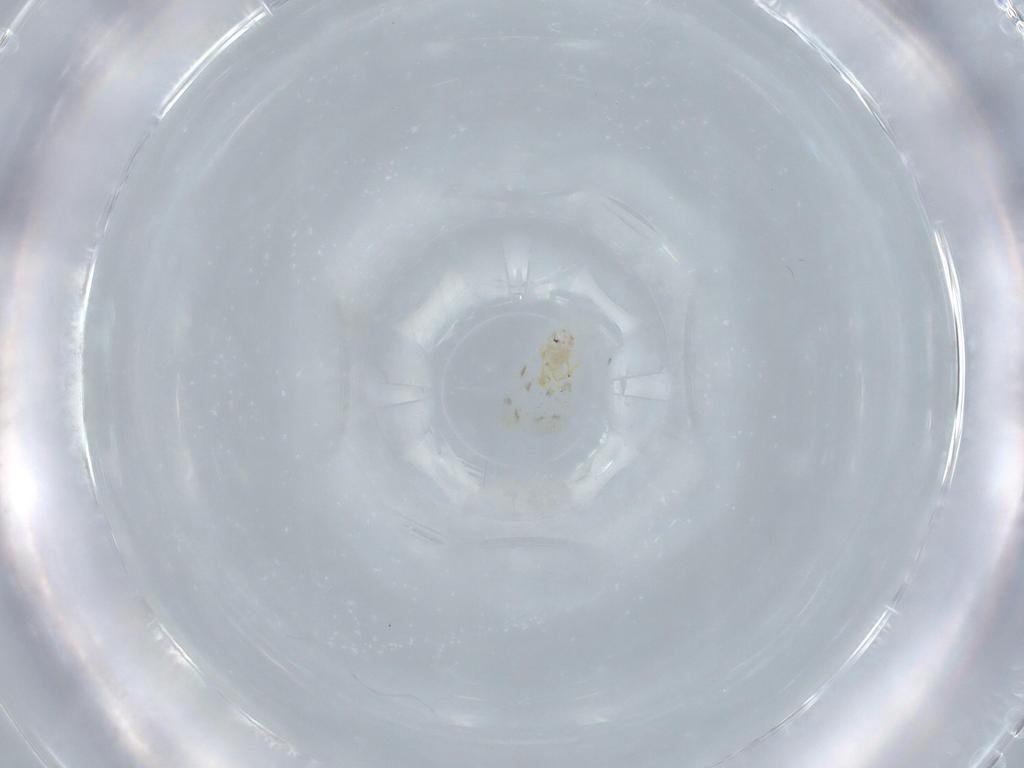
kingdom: Animalia
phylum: Arthropoda
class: Insecta
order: Hemiptera
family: Aleyrodidae
